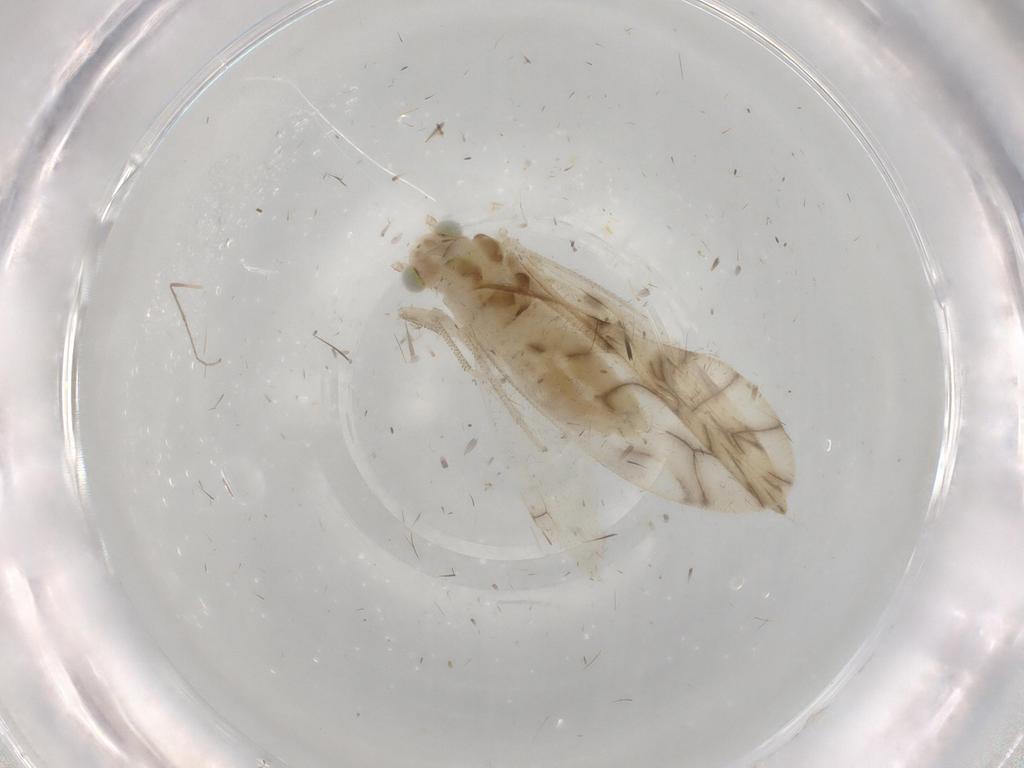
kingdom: Animalia
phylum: Arthropoda
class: Insecta
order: Psocodea
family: Caeciliusidae
